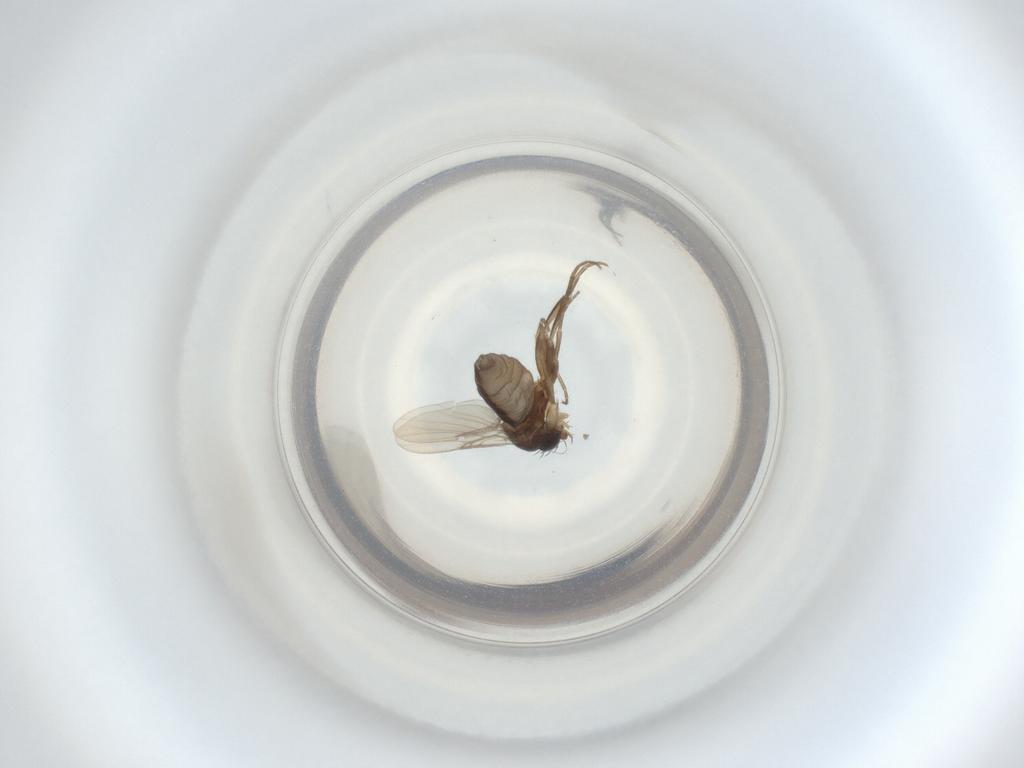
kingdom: Animalia
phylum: Arthropoda
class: Insecta
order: Diptera
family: Phoridae
